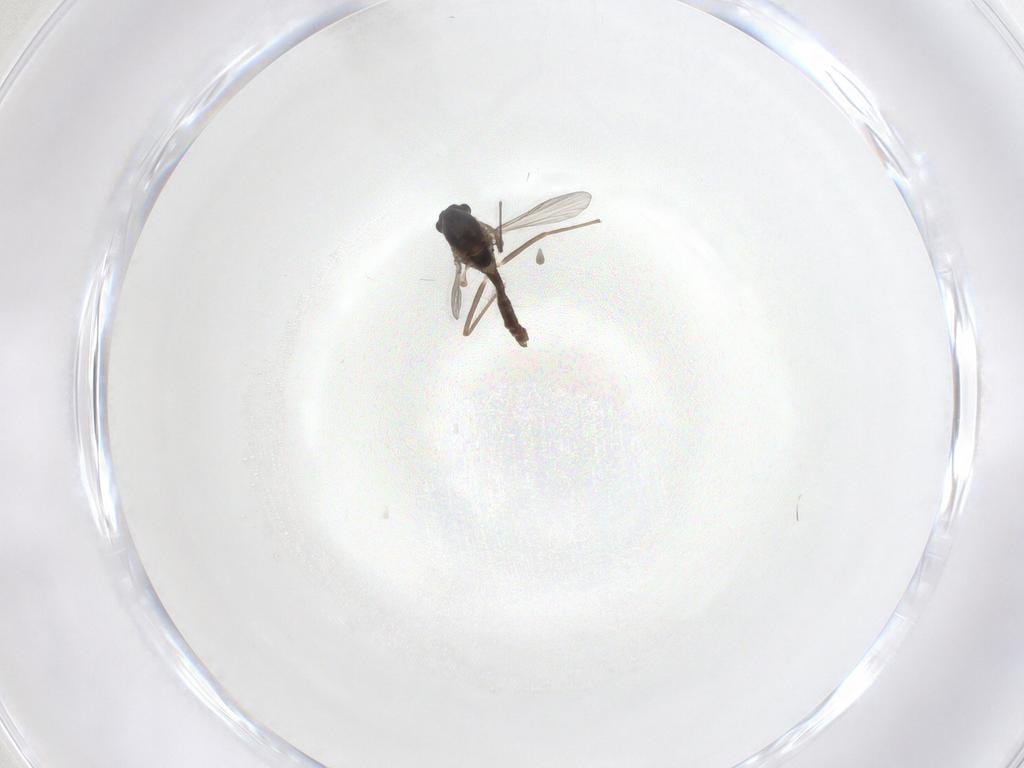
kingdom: Animalia
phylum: Arthropoda
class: Insecta
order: Diptera
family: Chironomidae
